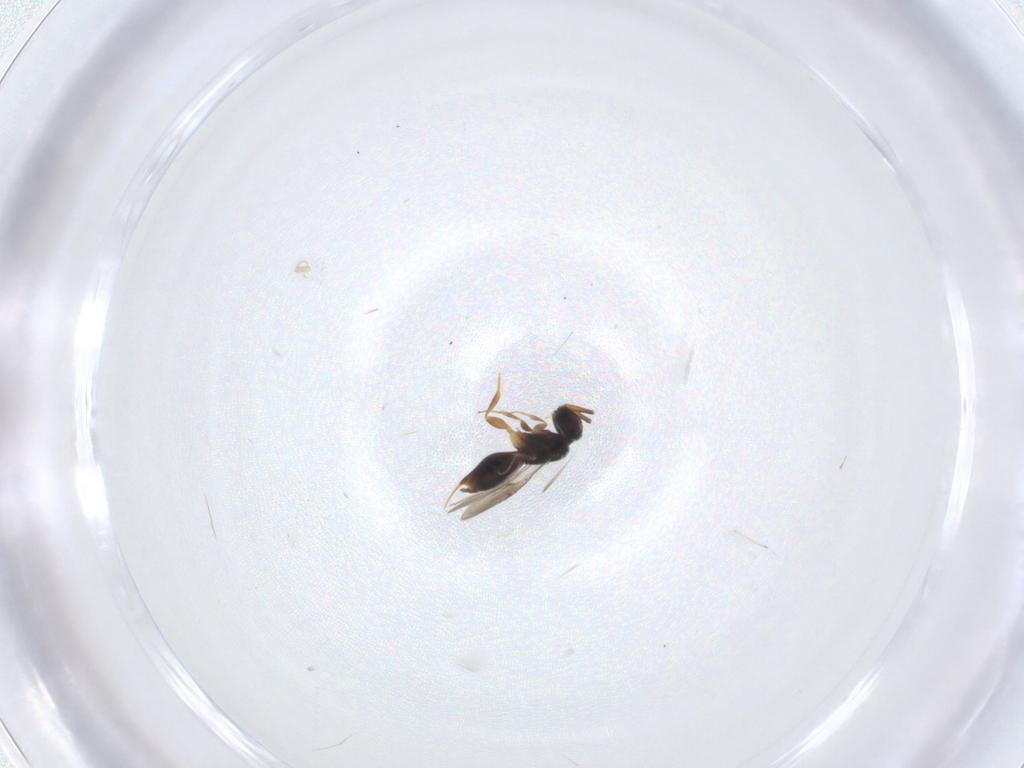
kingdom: Animalia
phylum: Arthropoda
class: Insecta
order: Hymenoptera
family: Ceraphronidae
